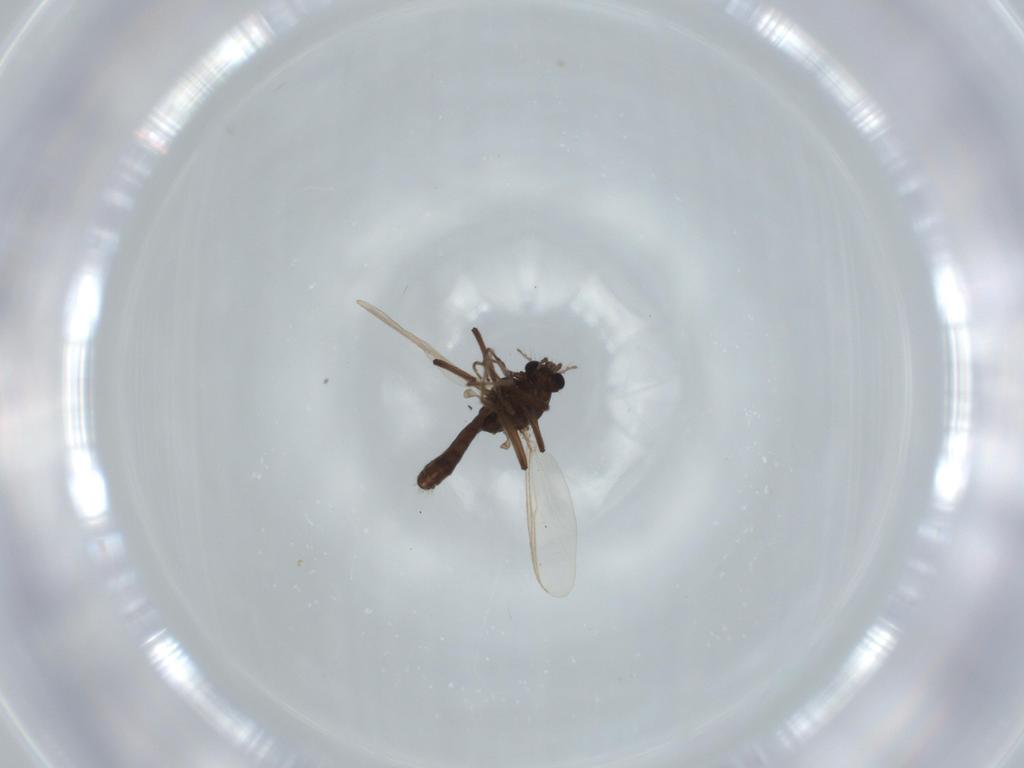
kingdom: Animalia
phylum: Arthropoda
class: Insecta
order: Diptera
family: Chironomidae
